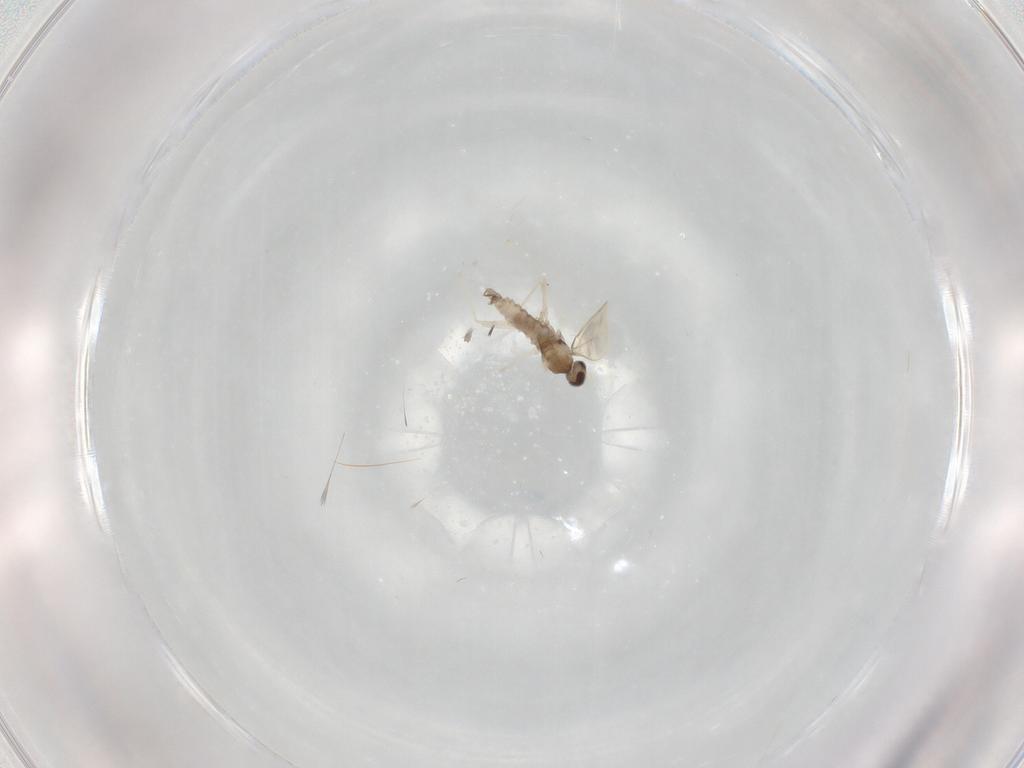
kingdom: Animalia
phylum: Arthropoda
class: Insecta
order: Diptera
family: Cecidomyiidae
